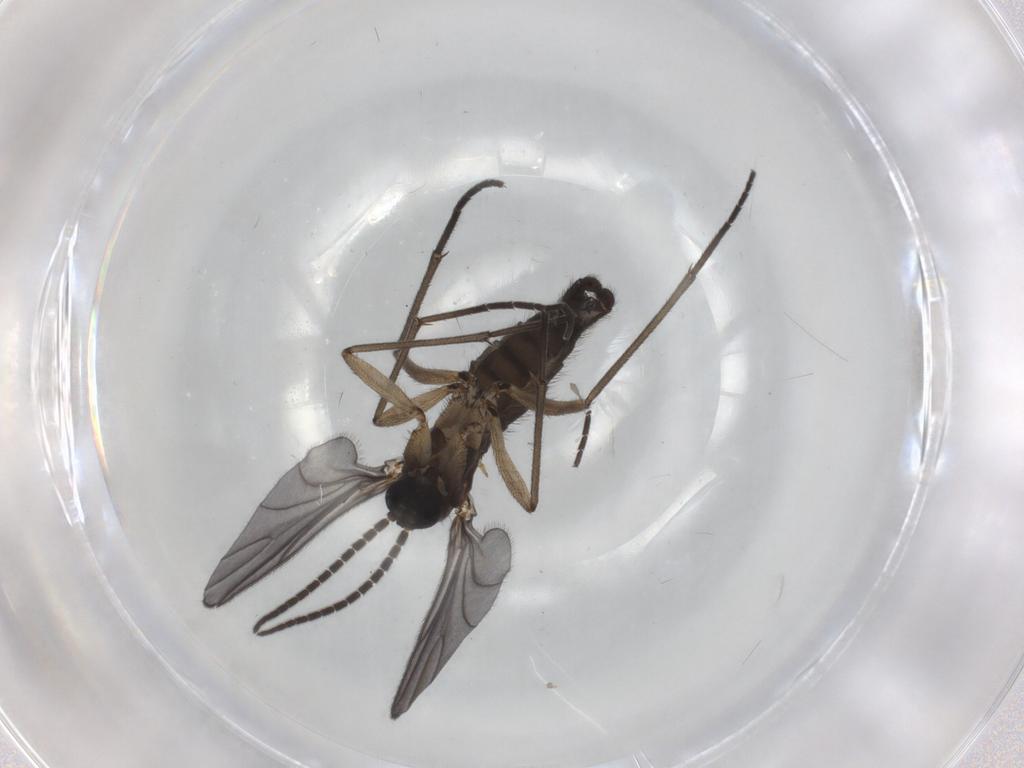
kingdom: Animalia
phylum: Arthropoda
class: Insecta
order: Diptera
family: Sciaridae
